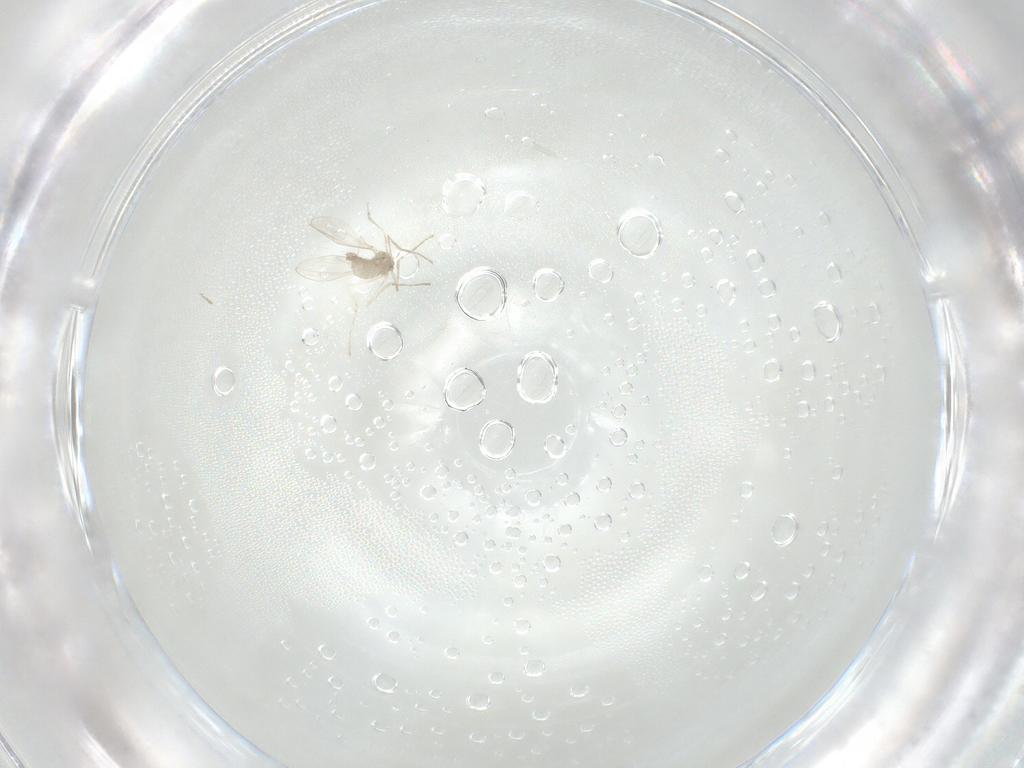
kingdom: Animalia
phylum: Arthropoda
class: Insecta
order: Diptera
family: Cecidomyiidae
